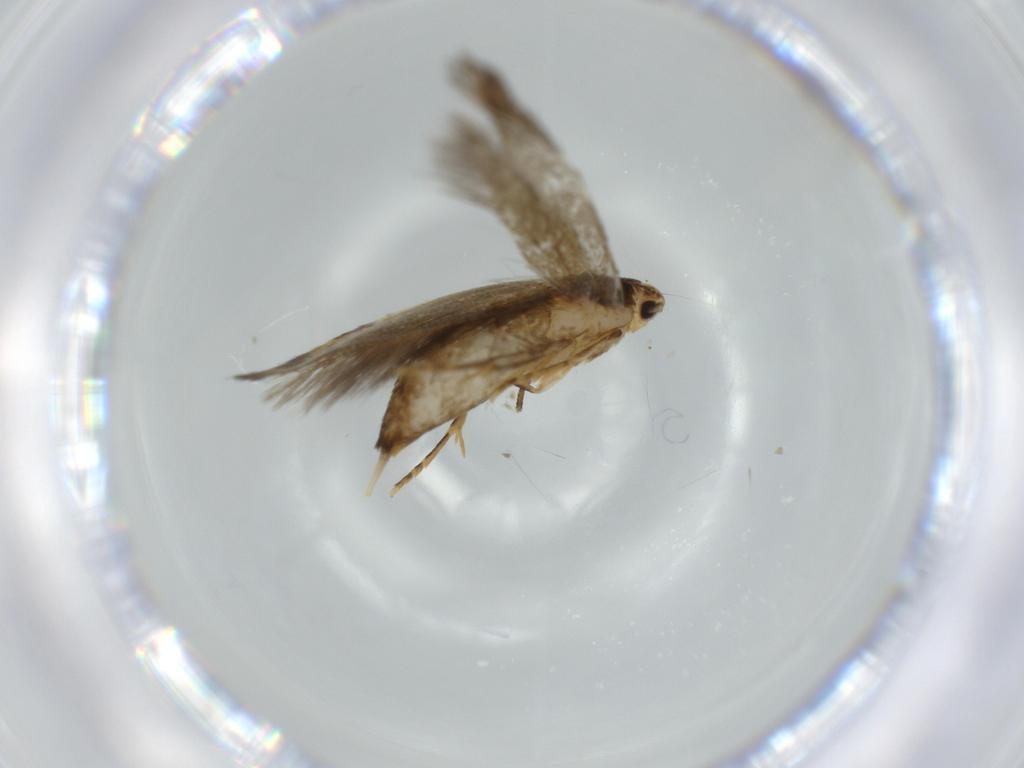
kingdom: Animalia
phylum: Arthropoda
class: Insecta
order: Lepidoptera
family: Tineidae
